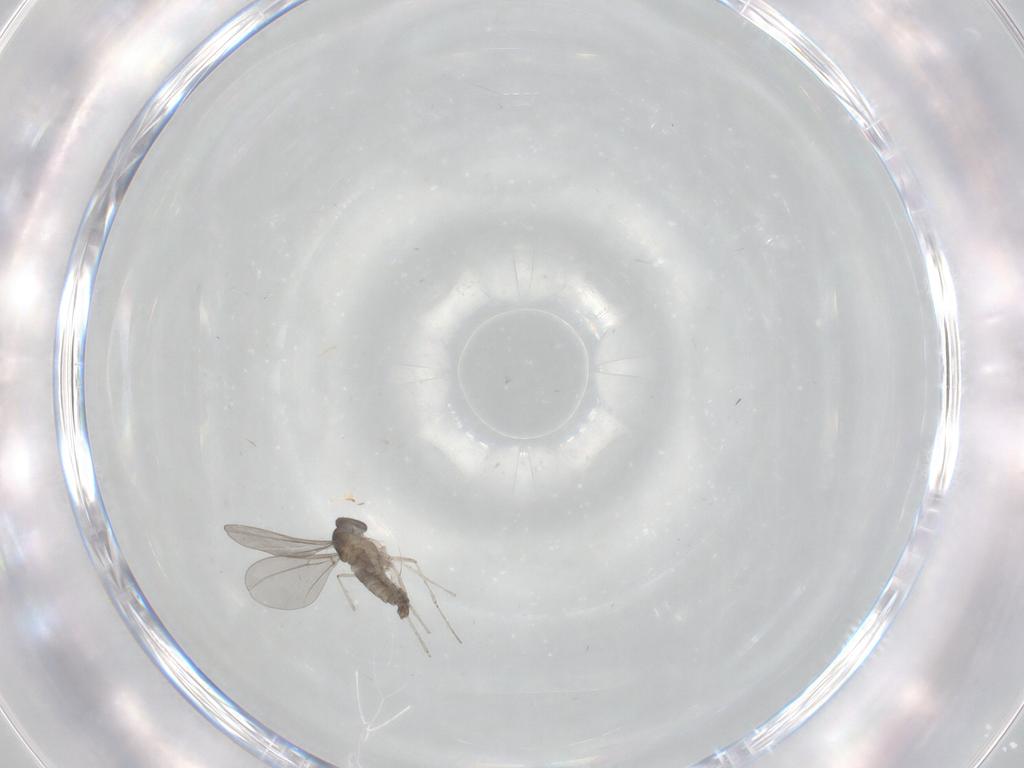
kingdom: Animalia
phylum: Arthropoda
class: Insecta
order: Diptera
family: Cecidomyiidae
